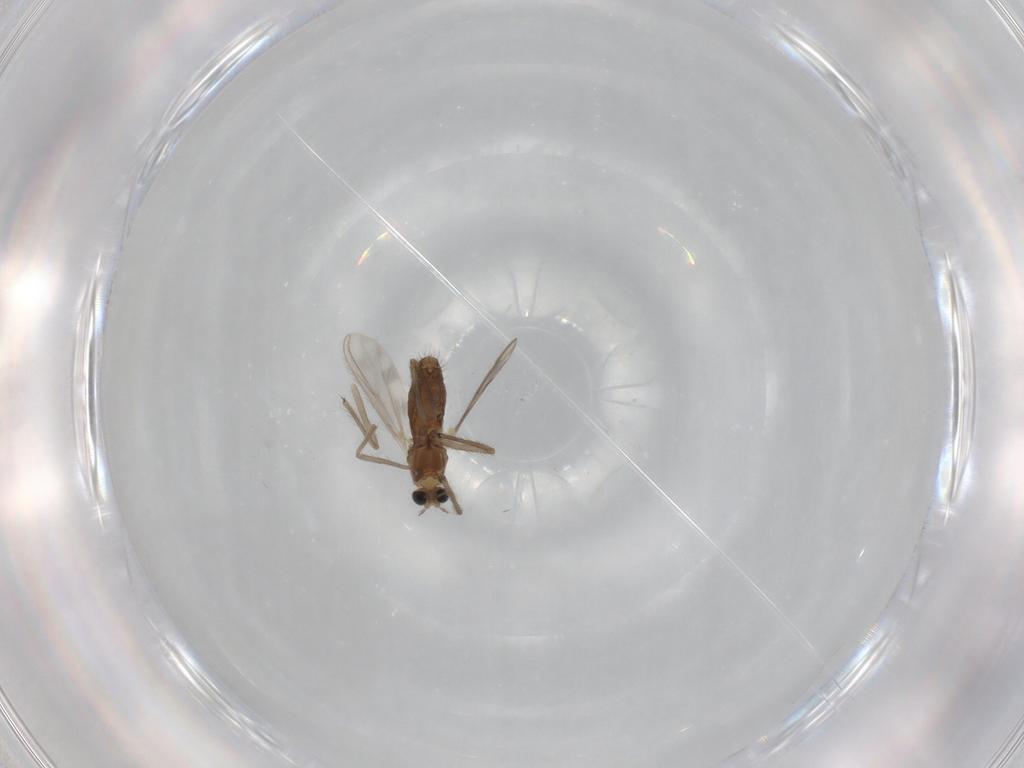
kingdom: Animalia
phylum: Arthropoda
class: Insecta
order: Diptera
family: Chironomidae
